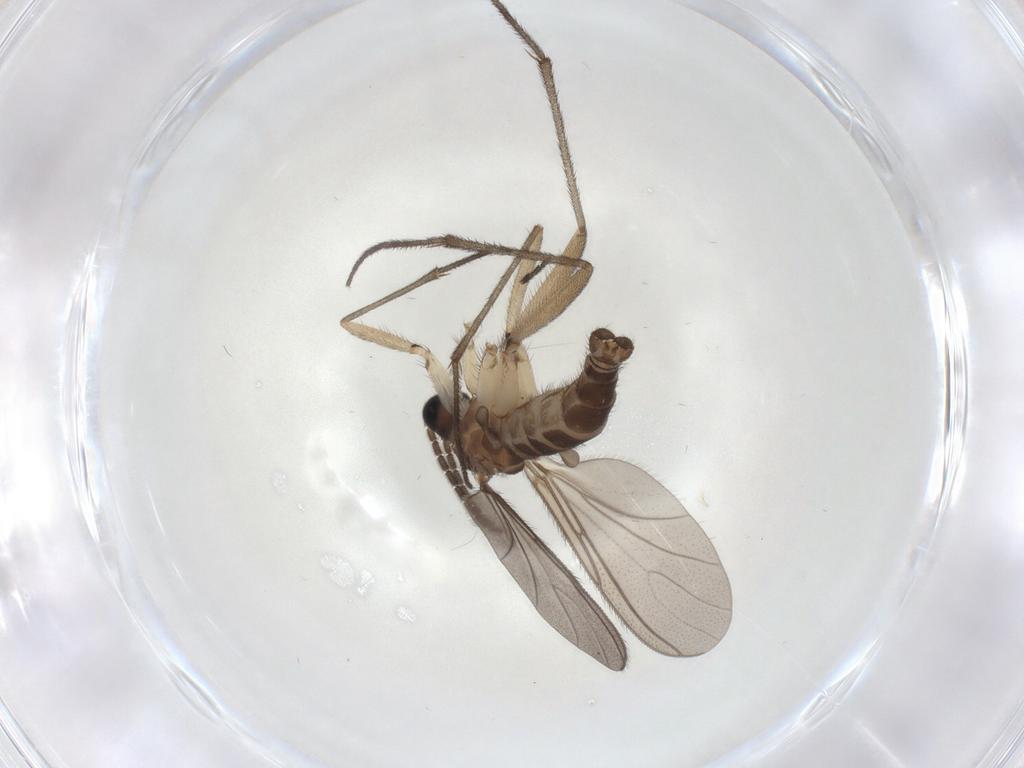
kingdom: Animalia
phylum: Arthropoda
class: Insecta
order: Diptera
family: Sciaridae
